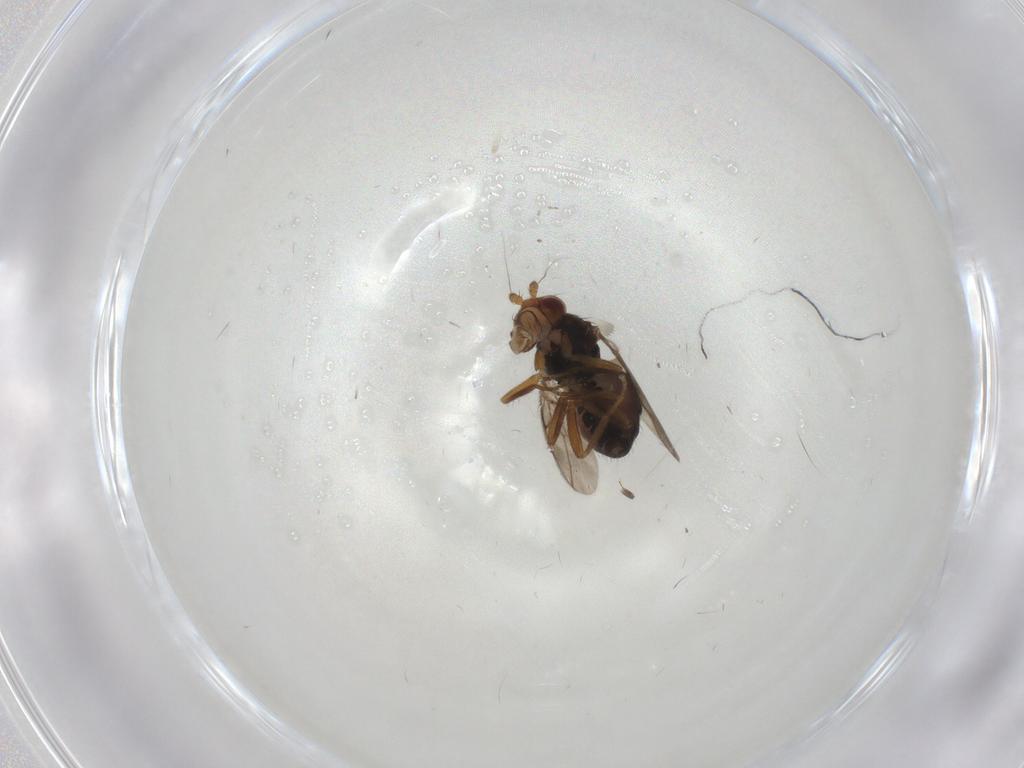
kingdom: Animalia
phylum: Arthropoda
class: Insecta
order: Diptera
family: Sphaeroceridae
